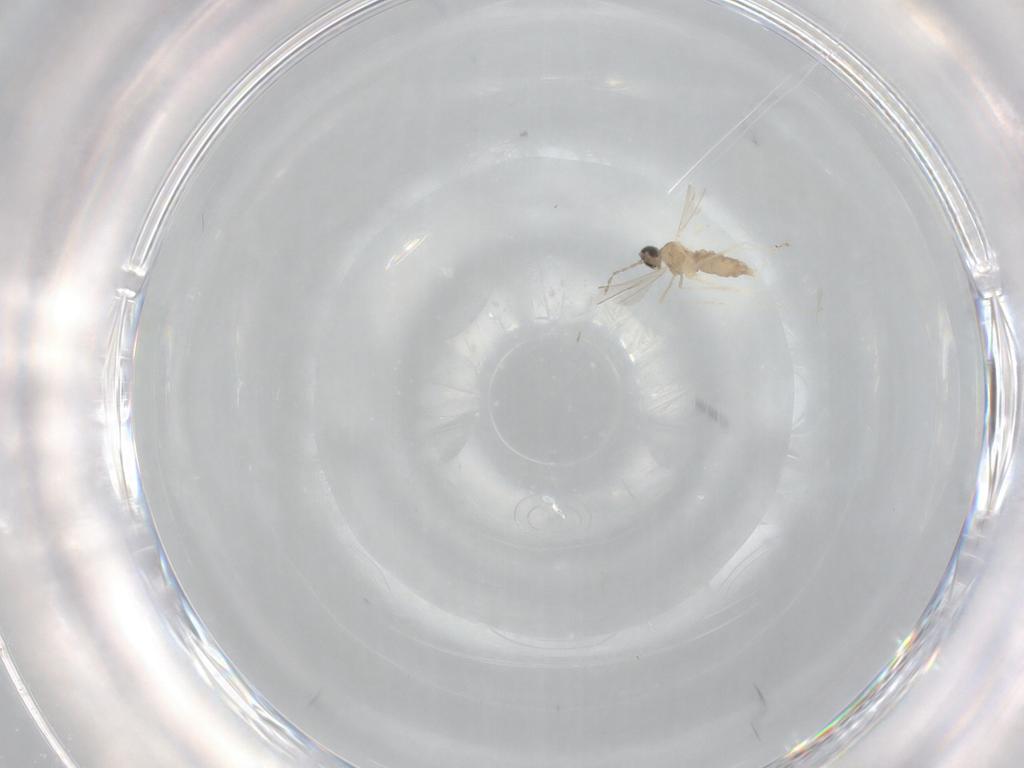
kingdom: Animalia
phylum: Arthropoda
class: Insecta
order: Diptera
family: Cecidomyiidae
